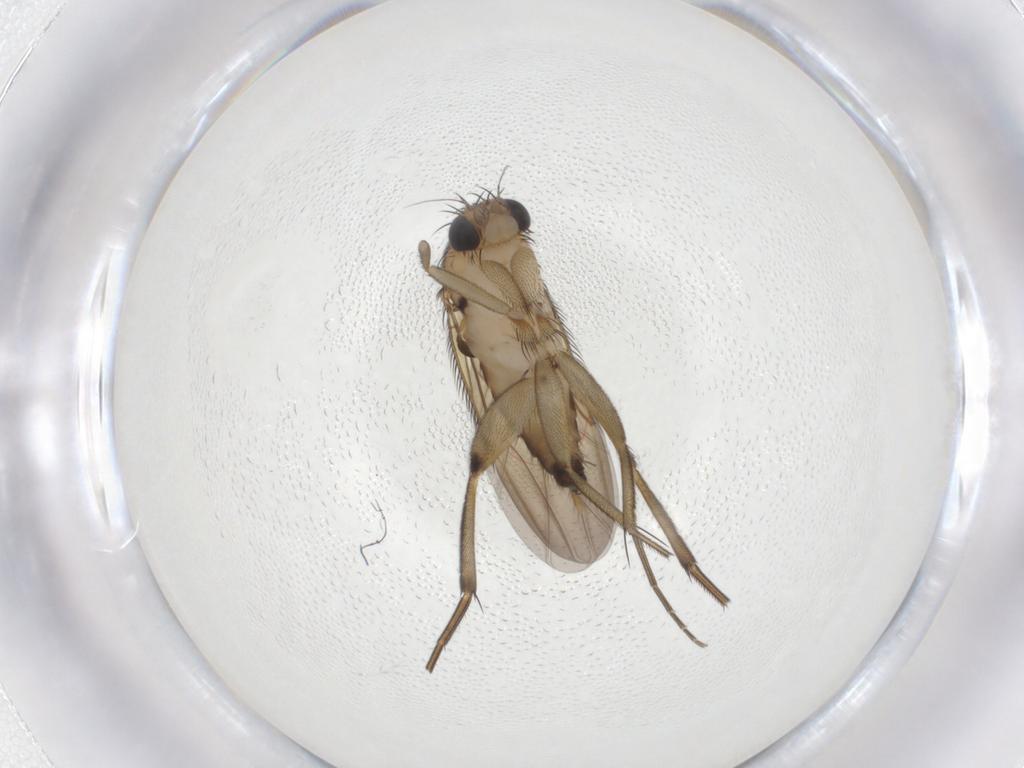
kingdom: Animalia
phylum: Arthropoda
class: Insecta
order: Diptera
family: Phoridae
